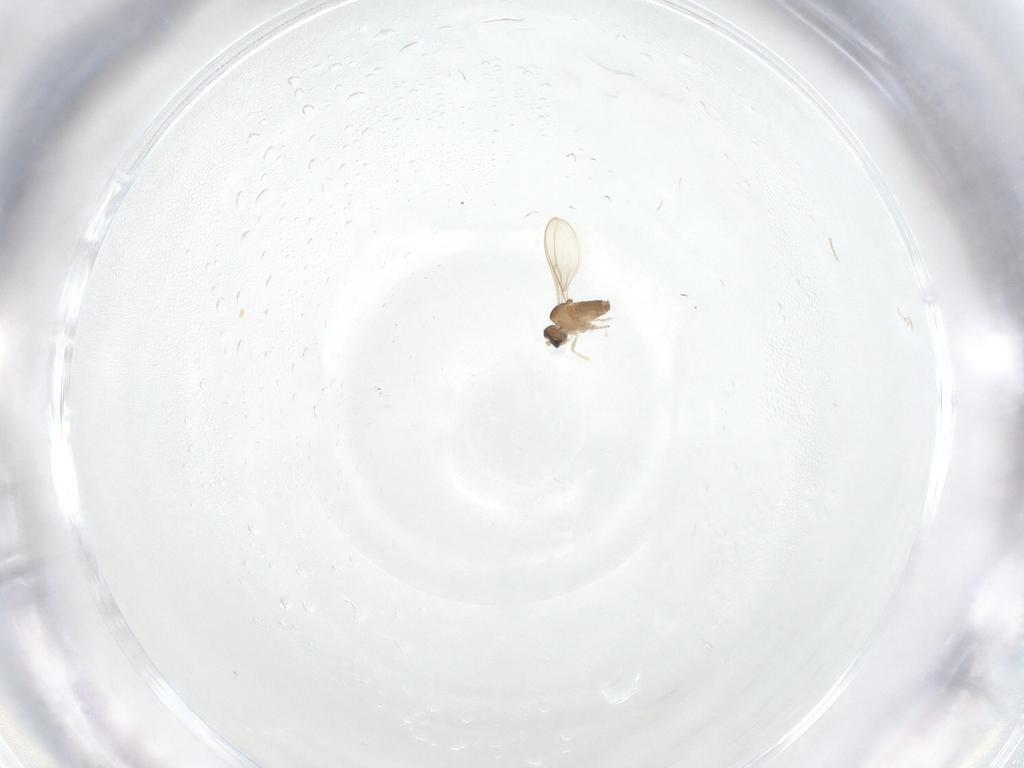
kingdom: Animalia
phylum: Arthropoda
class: Insecta
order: Diptera
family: Cecidomyiidae
